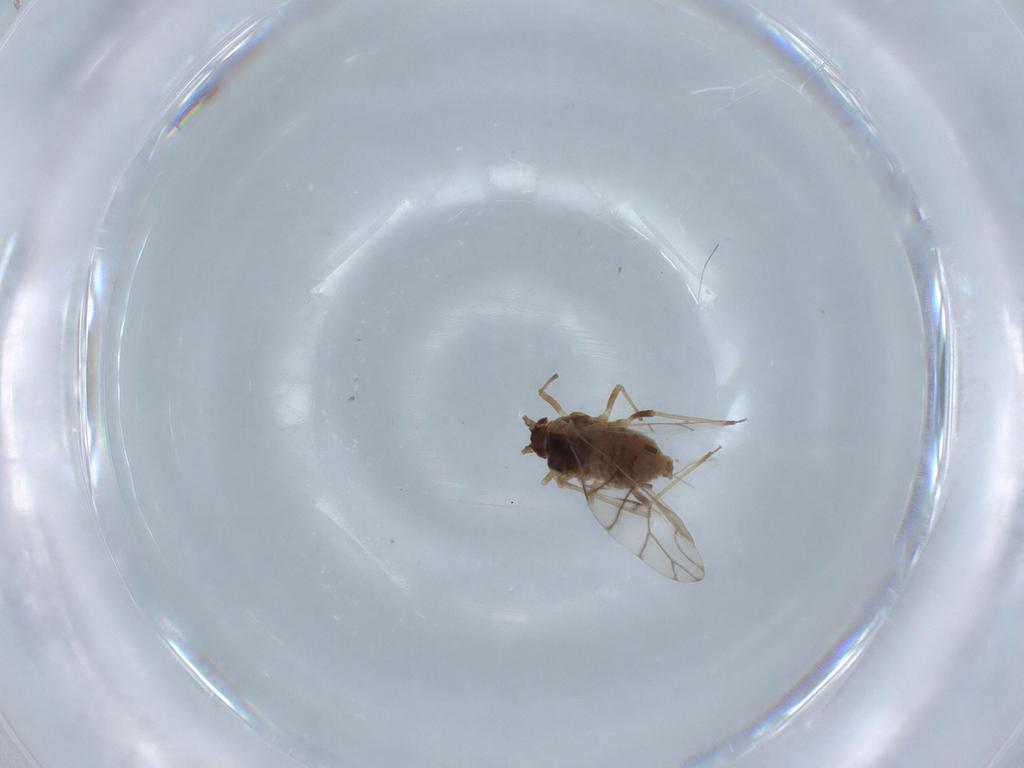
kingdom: Animalia
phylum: Arthropoda
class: Insecta
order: Hemiptera
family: Aphididae
